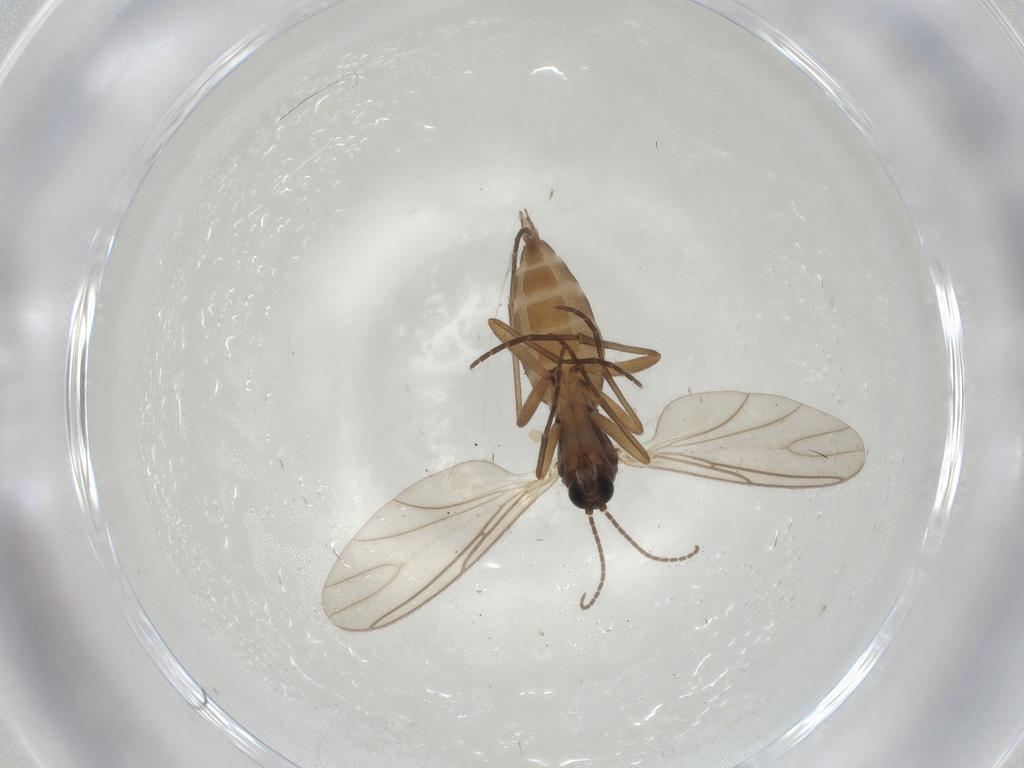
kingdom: Animalia
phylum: Arthropoda
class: Insecta
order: Diptera
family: Sciaridae
